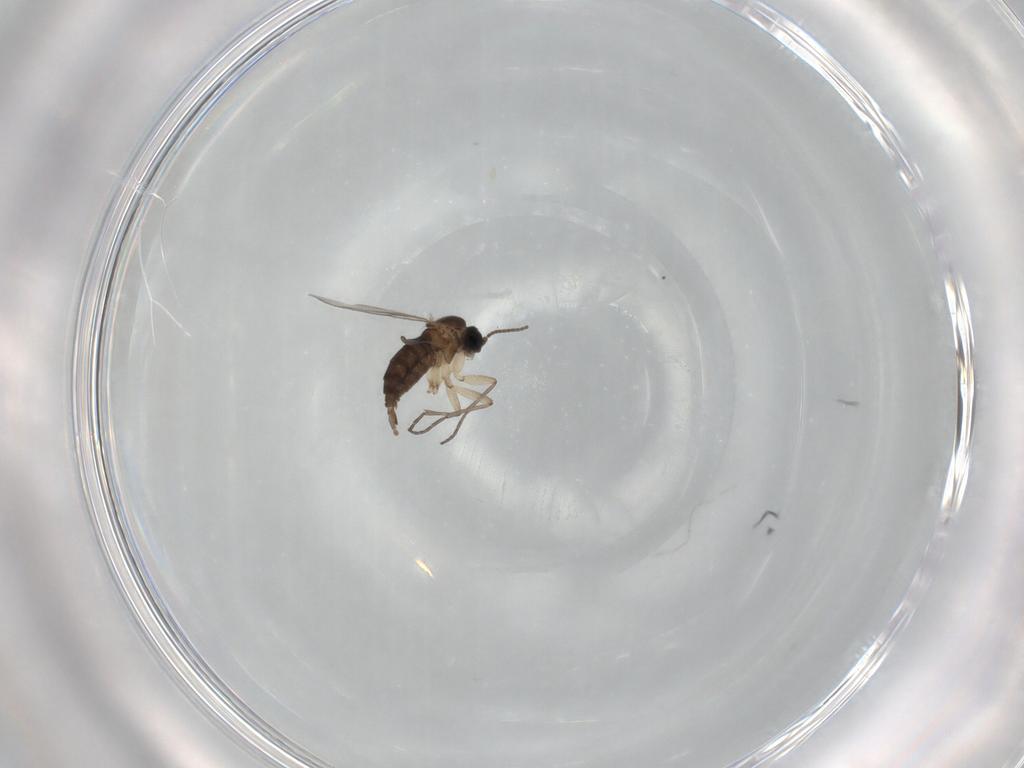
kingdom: Animalia
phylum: Arthropoda
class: Insecta
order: Diptera
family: Sciaridae
